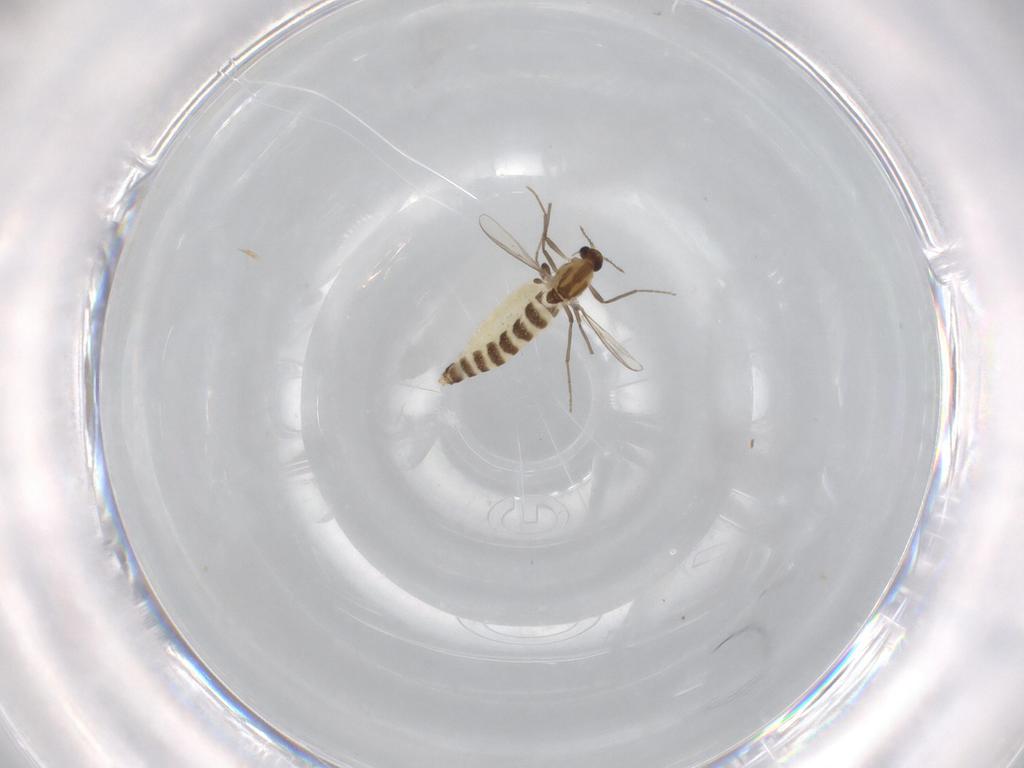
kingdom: Animalia
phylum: Arthropoda
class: Insecta
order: Diptera
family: Chironomidae
